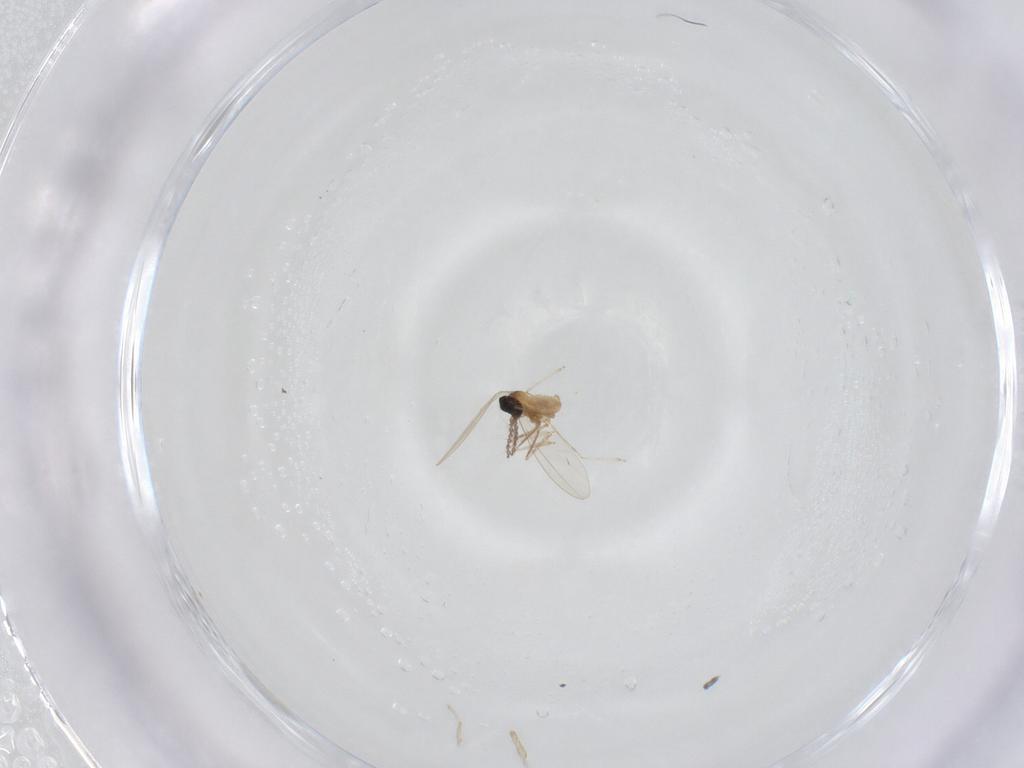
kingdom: Animalia
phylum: Arthropoda
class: Insecta
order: Diptera
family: Cecidomyiidae
